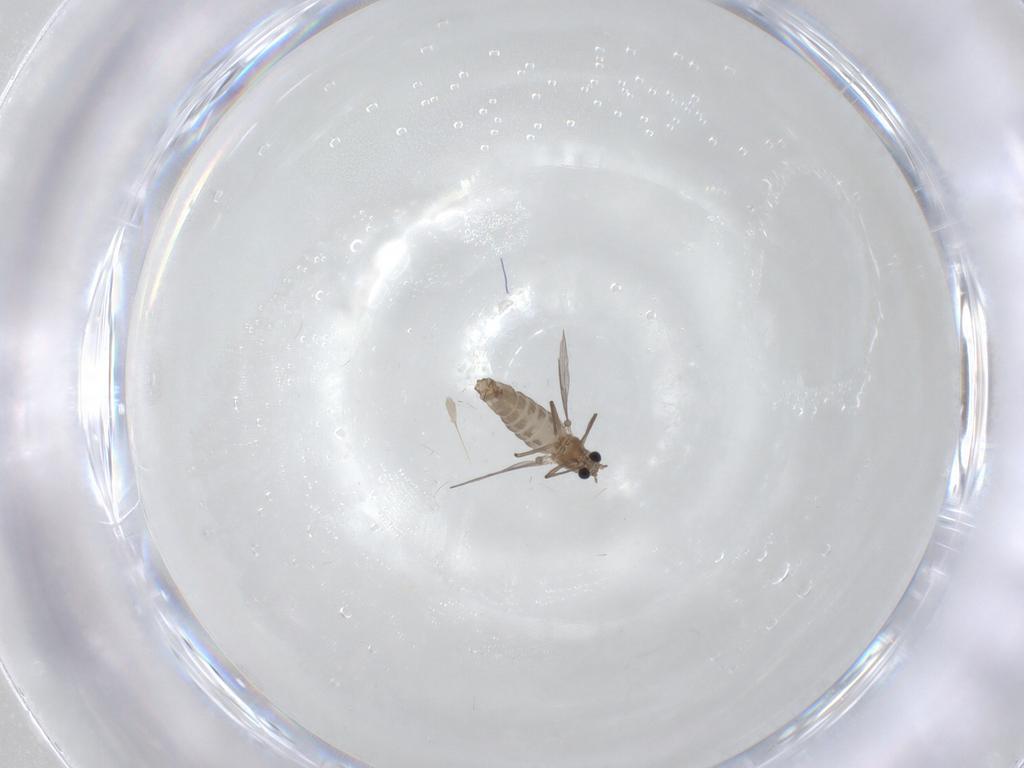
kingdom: Animalia
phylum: Arthropoda
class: Insecta
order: Diptera
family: Chironomidae
